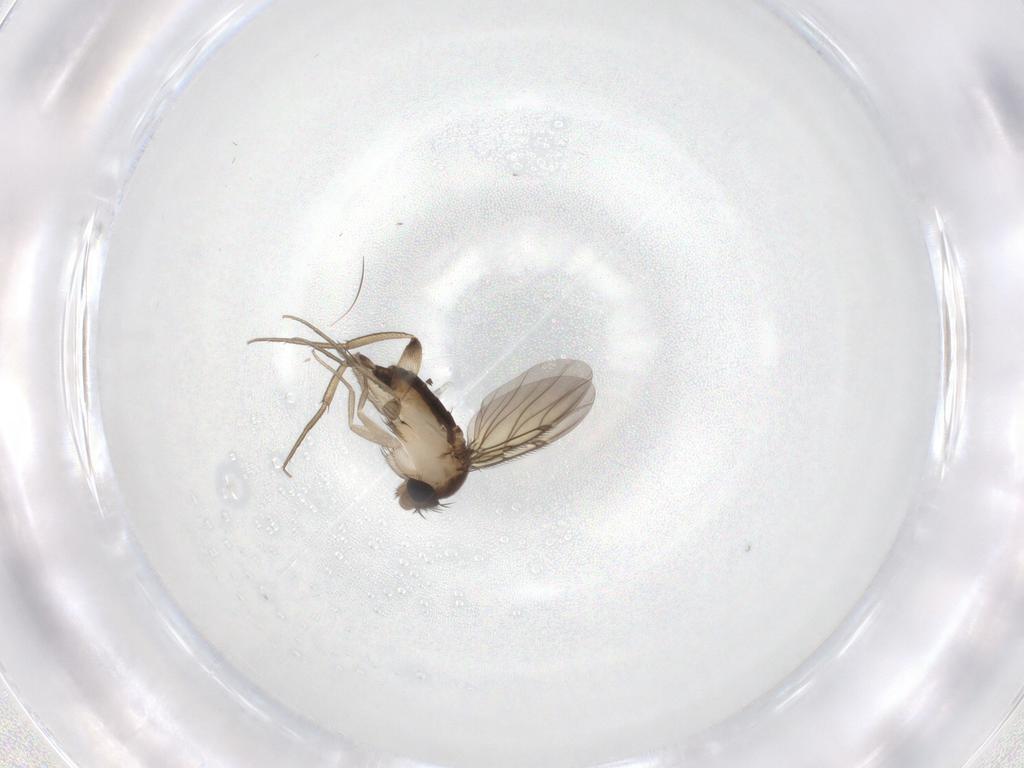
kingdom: Animalia
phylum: Arthropoda
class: Insecta
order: Diptera
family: Phoridae
